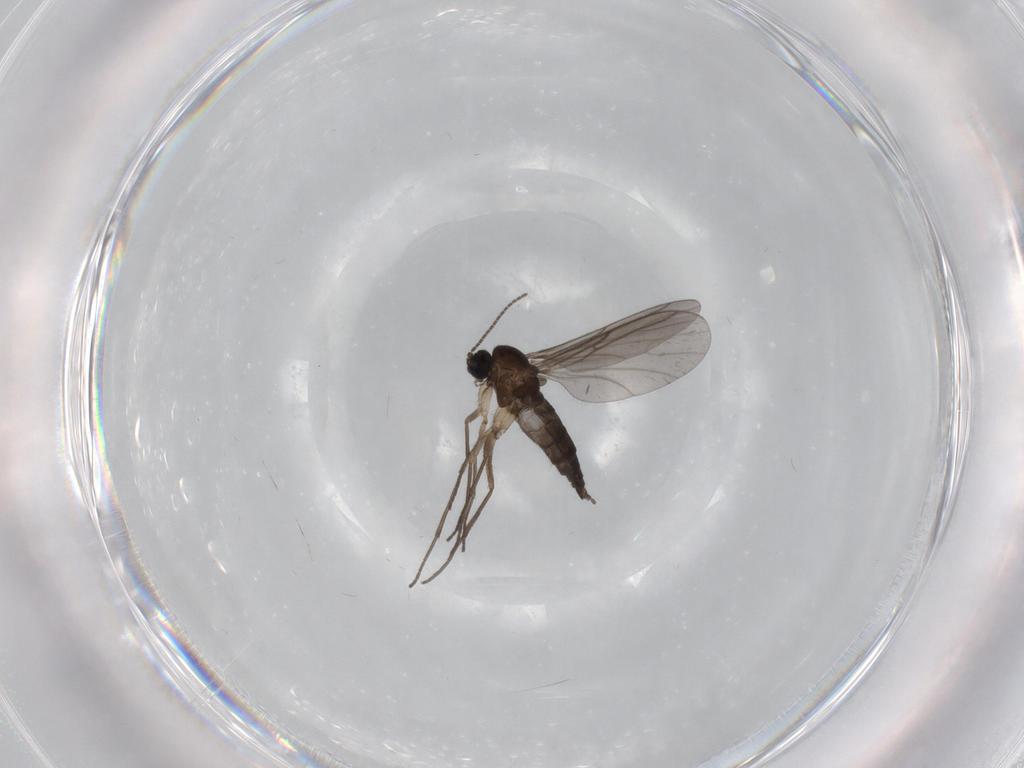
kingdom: Animalia
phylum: Arthropoda
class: Insecta
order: Diptera
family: Sciaridae
